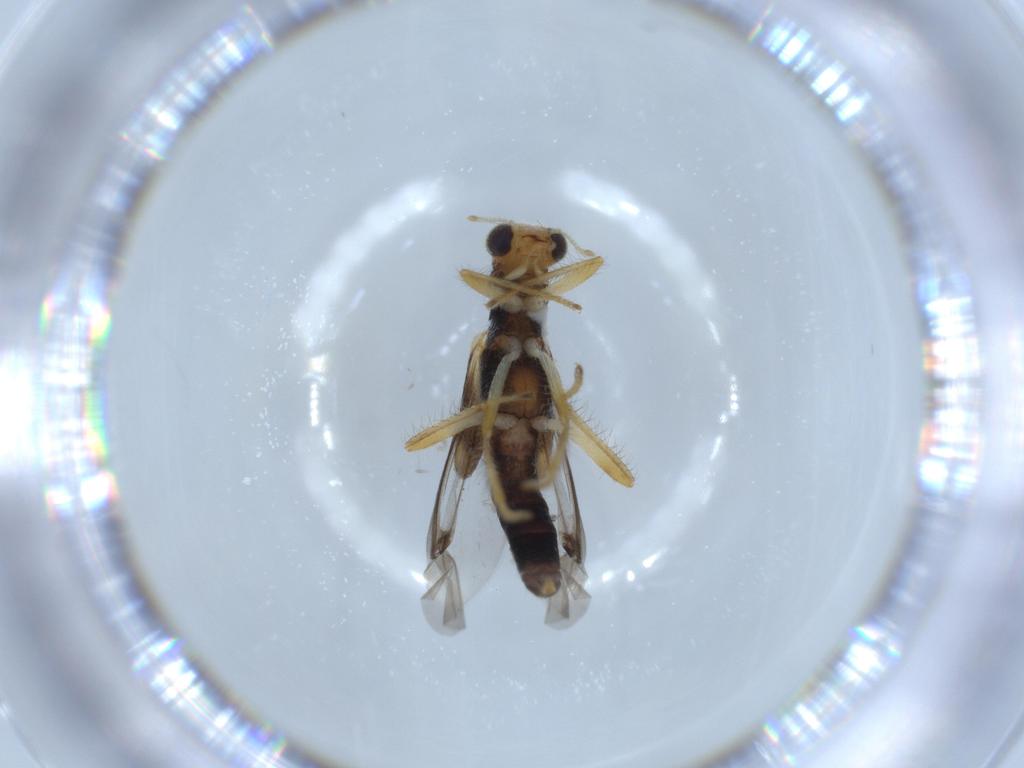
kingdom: Animalia
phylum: Arthropoda
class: Insecta
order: Coleoptera
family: Cleridae
